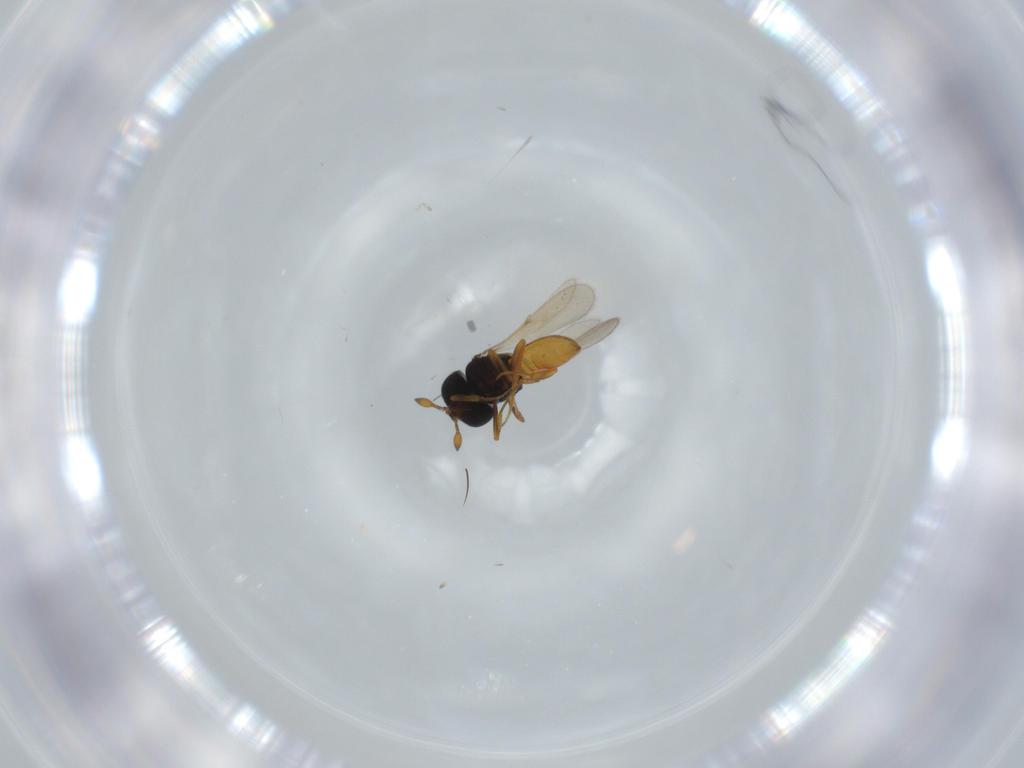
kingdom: Animalia
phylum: Arthropoda
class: Insecta
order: Hymenoptera
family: Scelionidae
